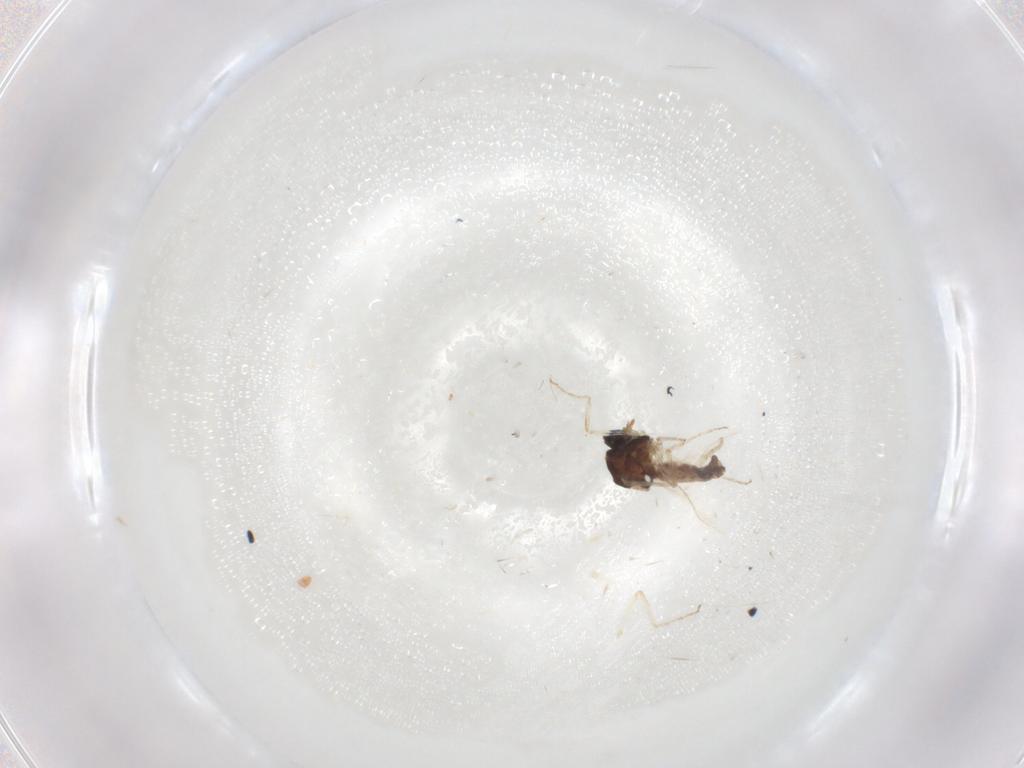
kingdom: Animalia
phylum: Arthropoda
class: Insecta
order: Diptera
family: Ceratopogonidae
